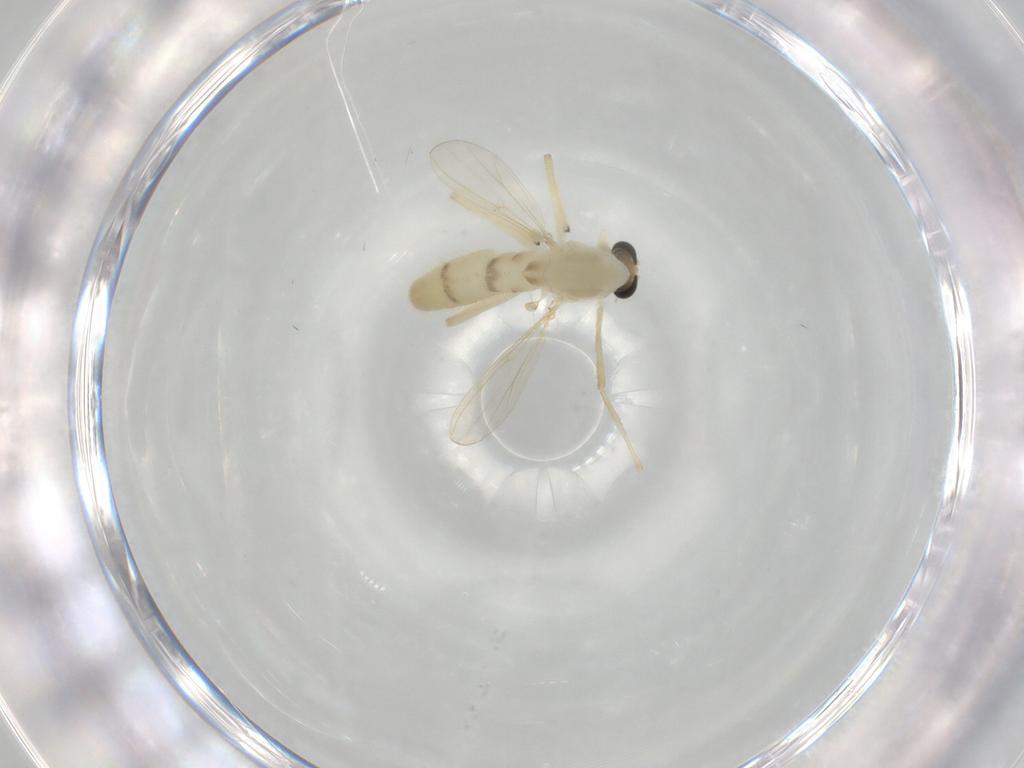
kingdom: Animalia
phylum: Arthropoda
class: Insecta
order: Diptera
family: Chironomidae
